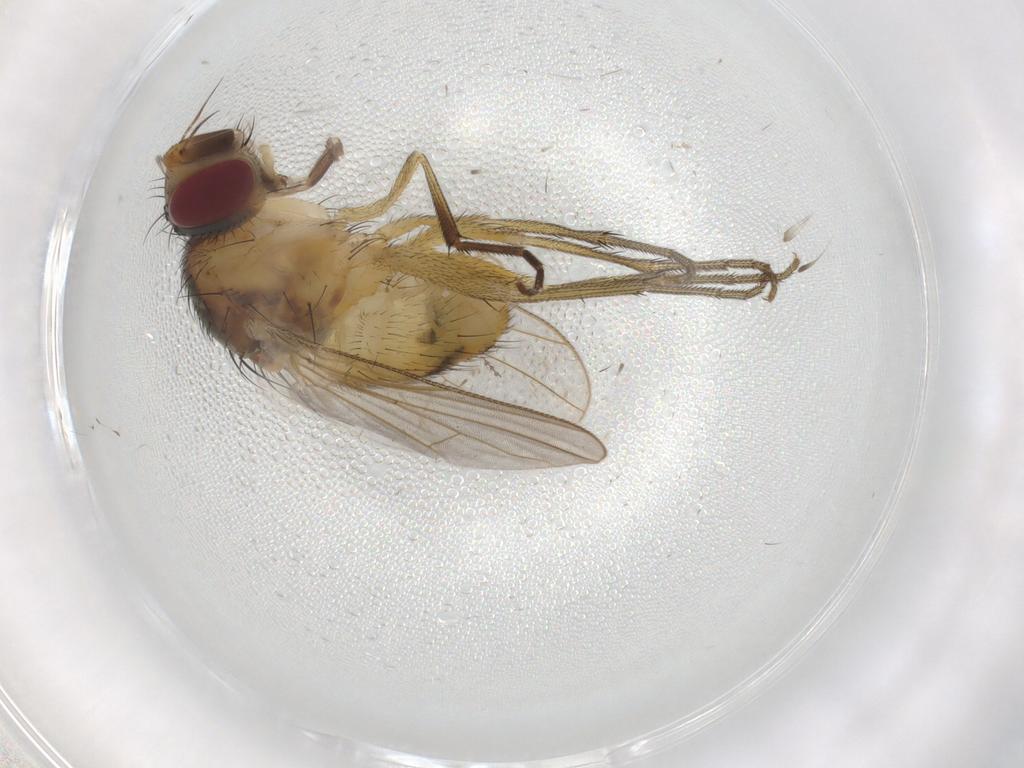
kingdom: Animalia
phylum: Arthropoda
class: Insecta
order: Diptera
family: Muscidae
